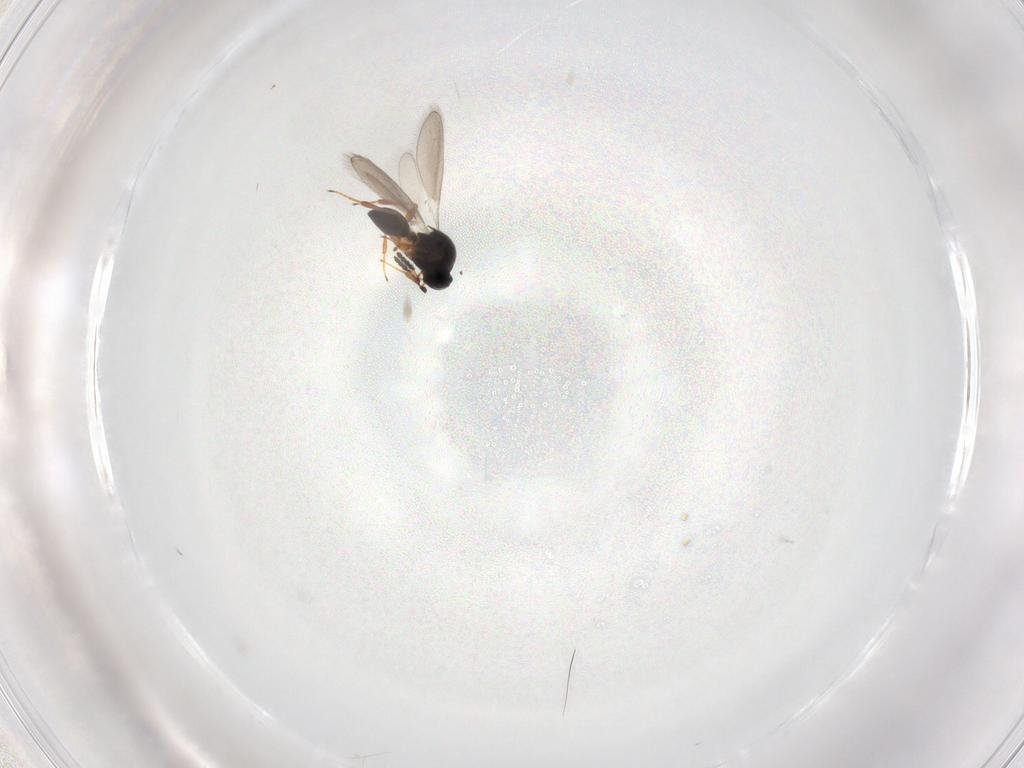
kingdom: Animalia
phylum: Arthropoda
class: Insecta
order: Hymenoptera
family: Platygastridae
